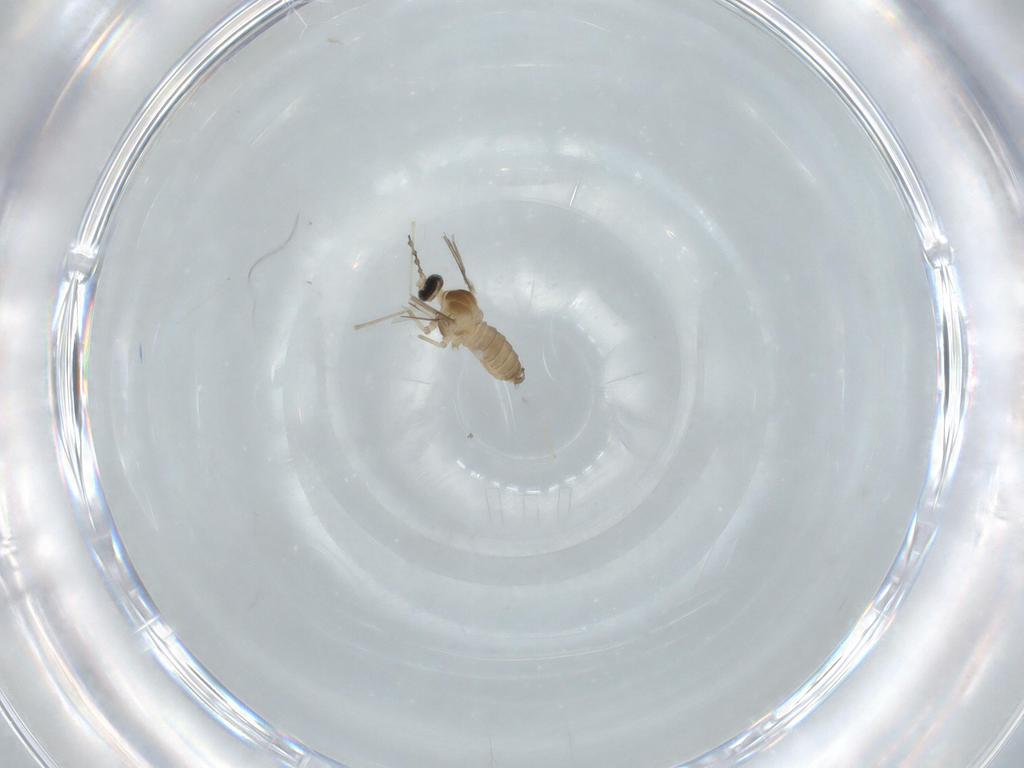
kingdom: Animalia
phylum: Arthropoda
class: Insecta
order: Diptera
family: Cecidomyiidae
